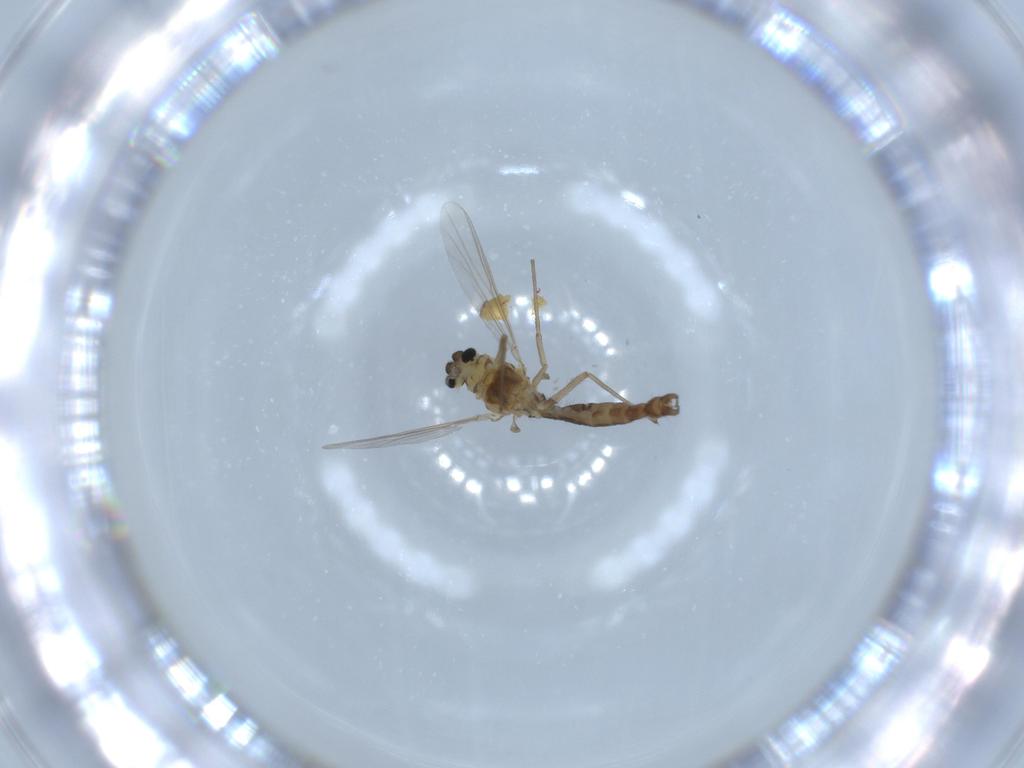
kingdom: Animalia
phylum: Arthropoda
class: Insecta
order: Diptera
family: Chironomidae
